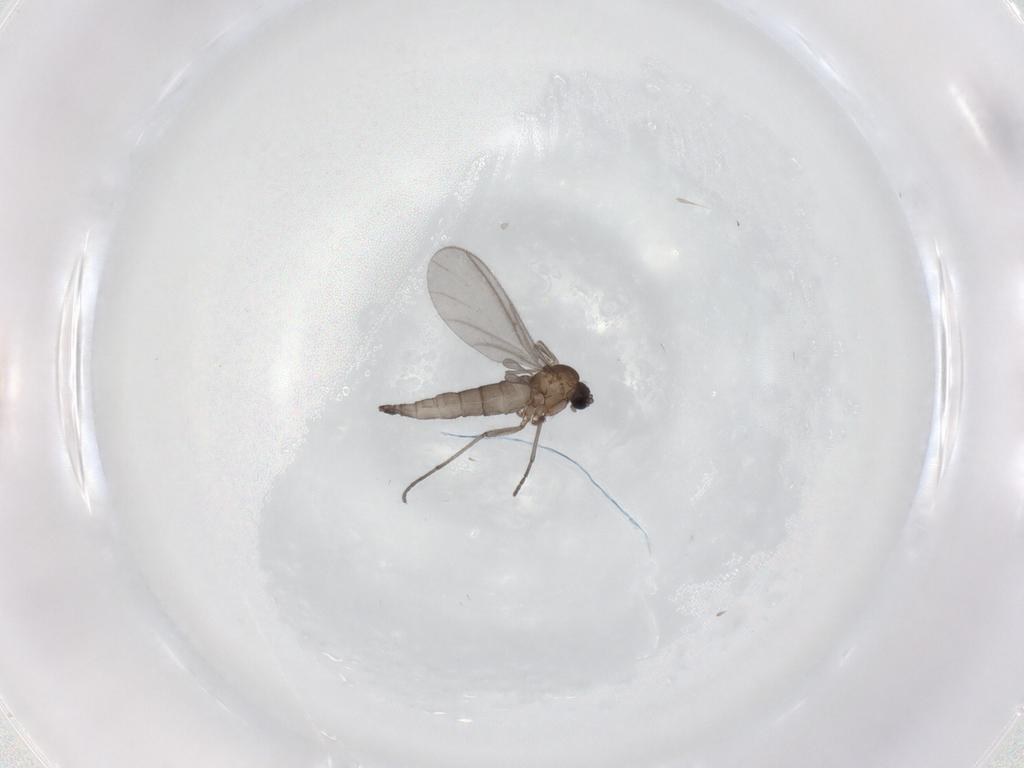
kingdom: Animalia
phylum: Arthropoda
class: Insecta
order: Diptera
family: Sciaridae
